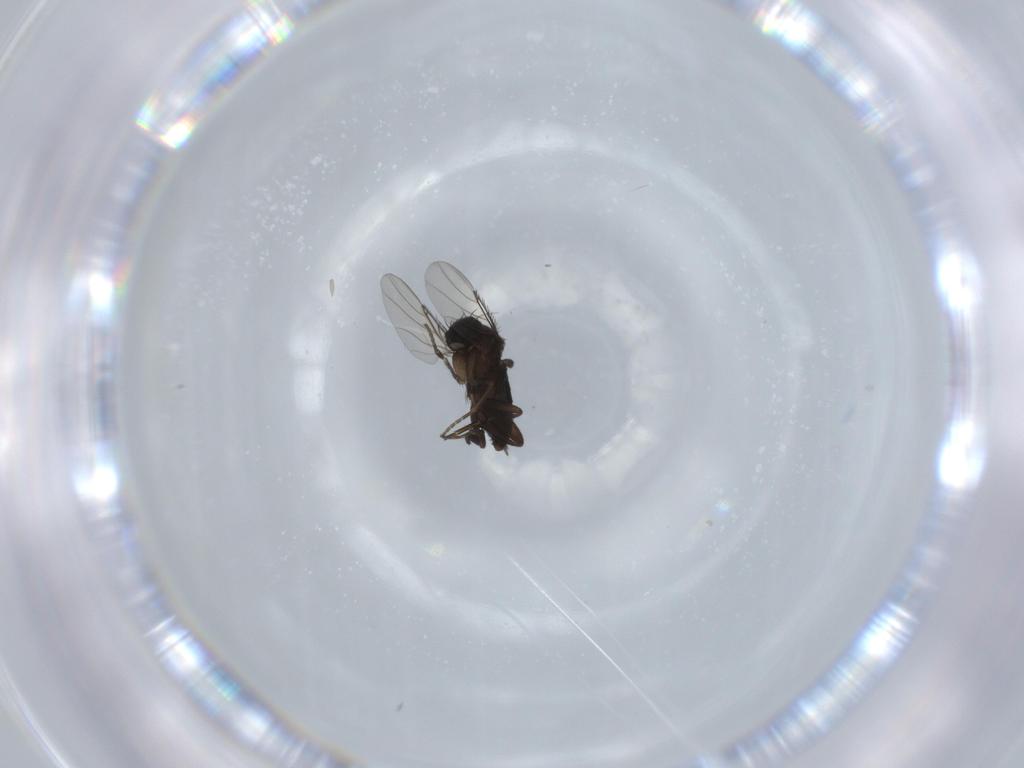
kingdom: Animalia
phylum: Arthropoda
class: Insecta
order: Diptera
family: Phoridae
